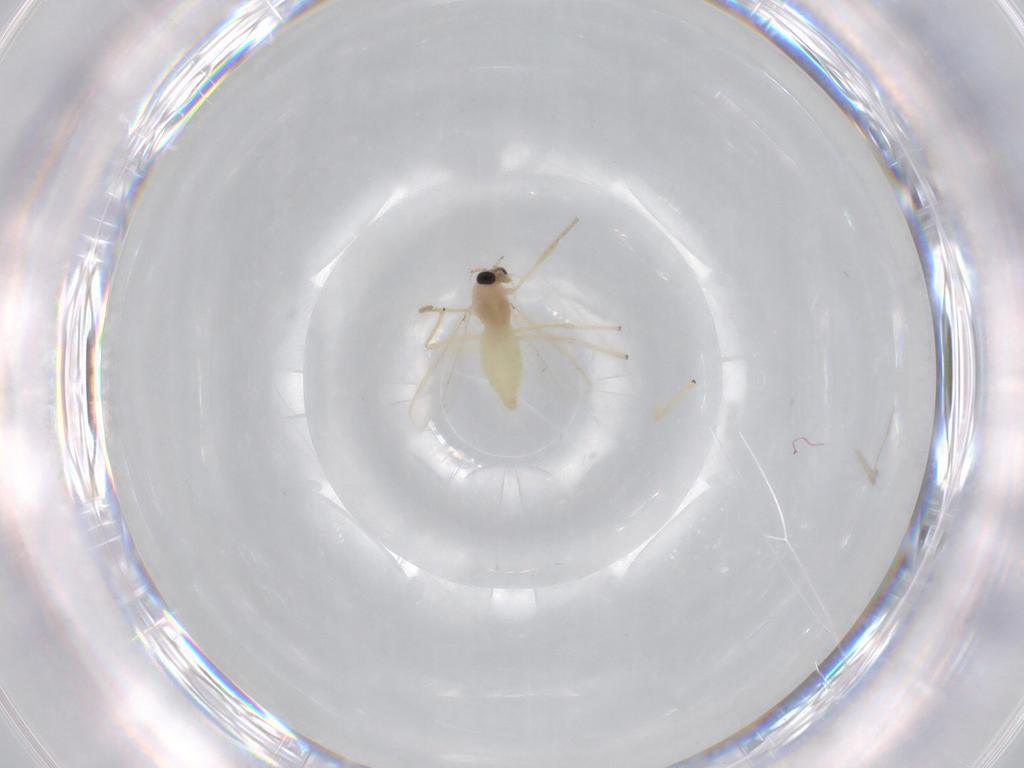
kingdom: Animalia
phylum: Arthropoda
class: Insecta
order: Diptera
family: Chironomidae
